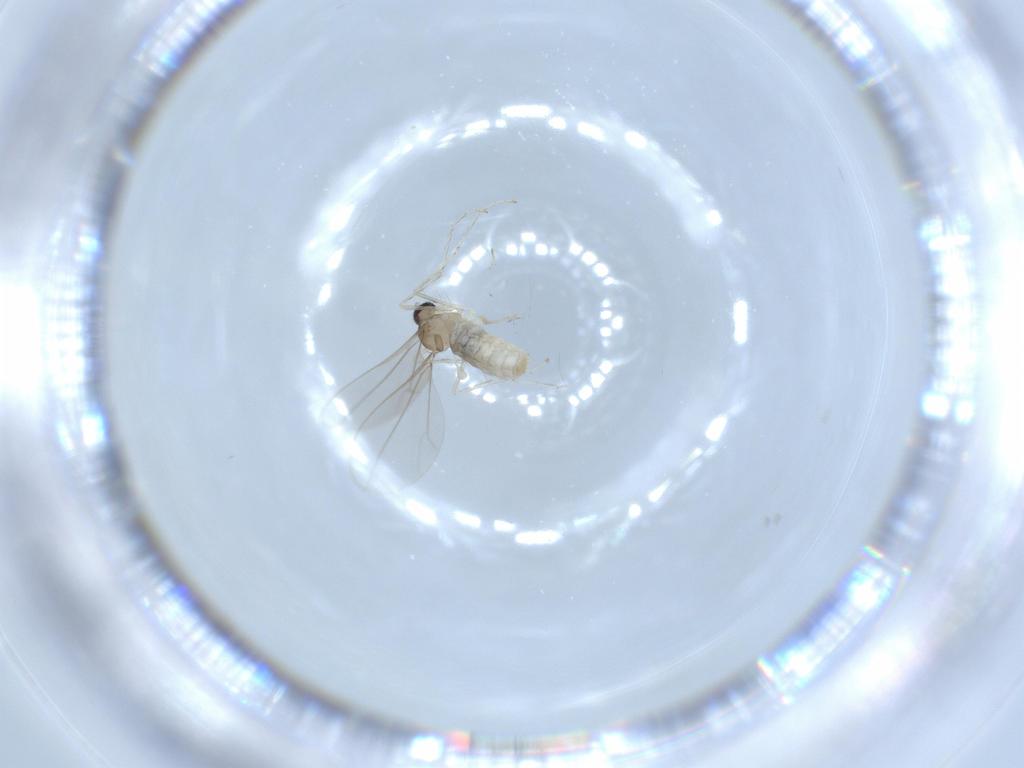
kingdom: Animalia
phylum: Arthropoda
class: Insecta
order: Diptera
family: Cecidomyiidae
